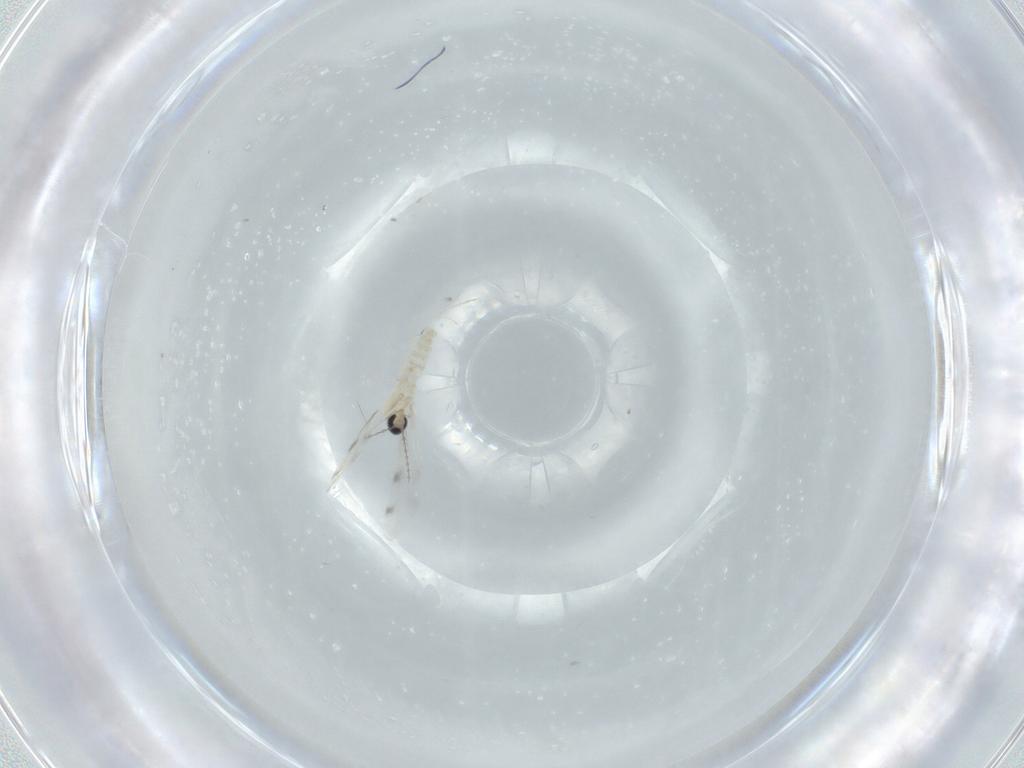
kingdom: Animalia
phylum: Arthropoda
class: Insecta
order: Diptera
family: Cecidomyiidae
